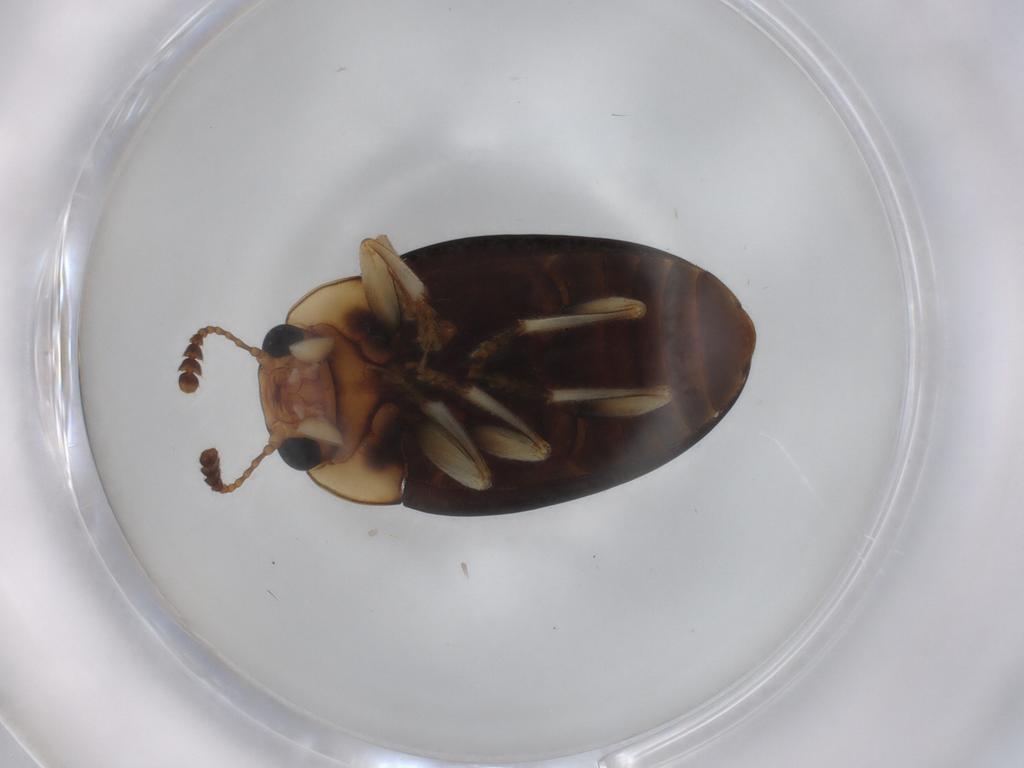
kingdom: Animalia
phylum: Arthropoda
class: Insecta
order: Coleoptera
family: Erotylidae
